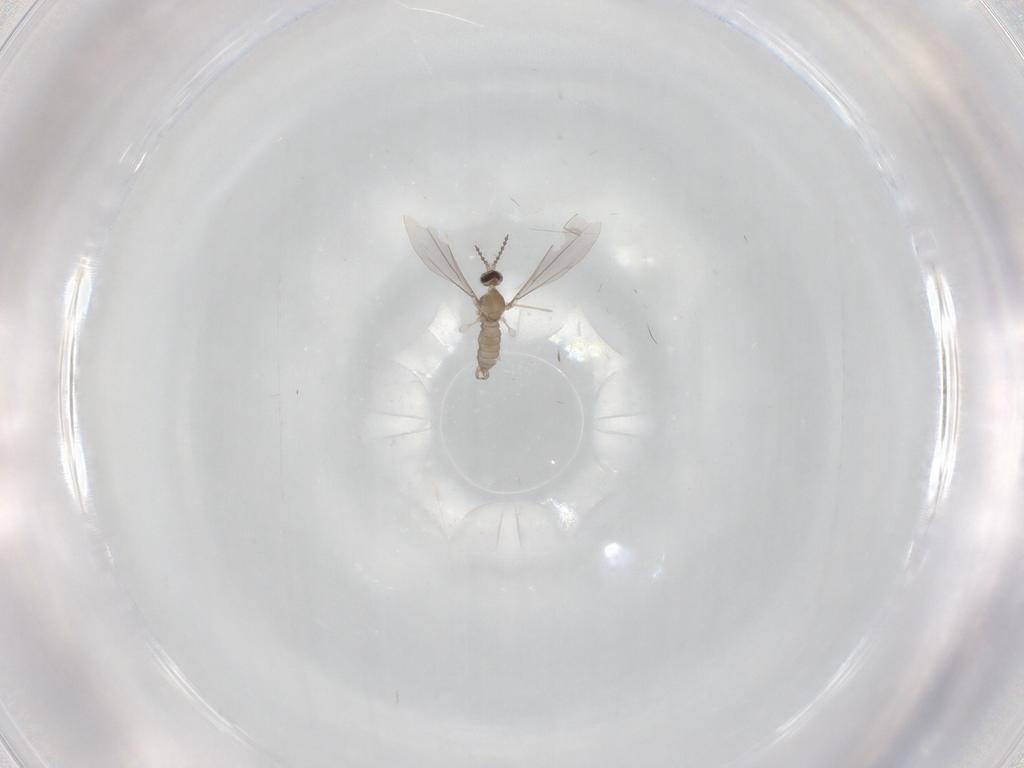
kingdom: Animalia
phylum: Arthropoda
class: Insecta
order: Diptera
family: Cecidomyiidae
